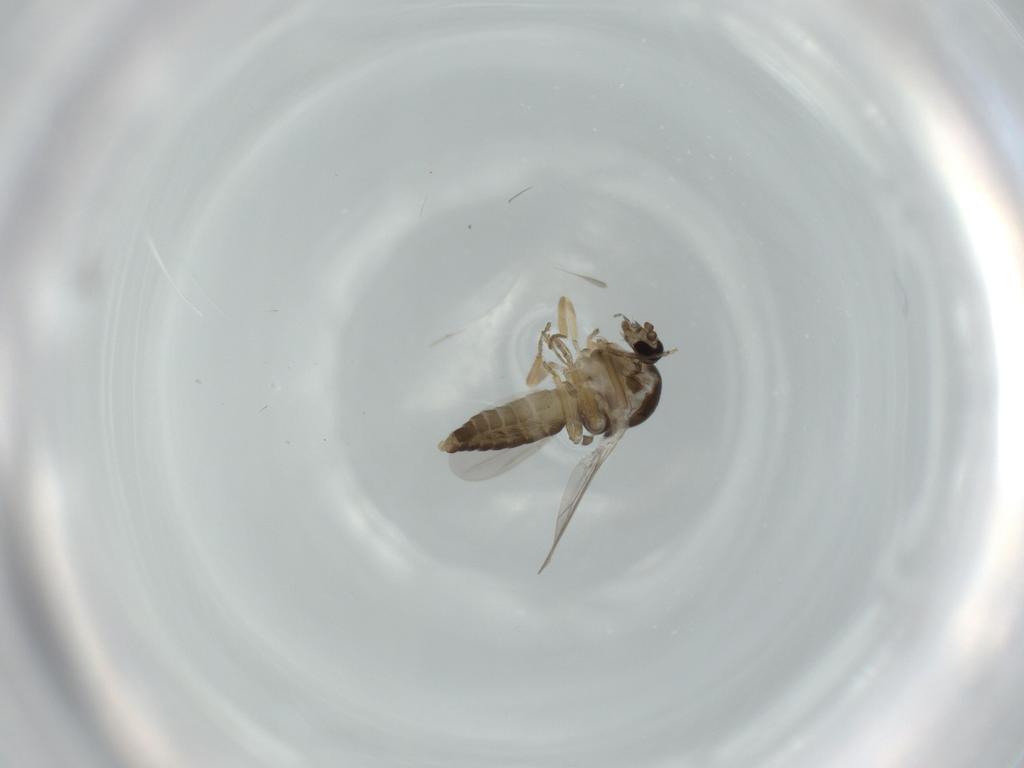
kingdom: Animalia
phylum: Arthropoda
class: Insecta
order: Diptera
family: Ceratopogonidae
